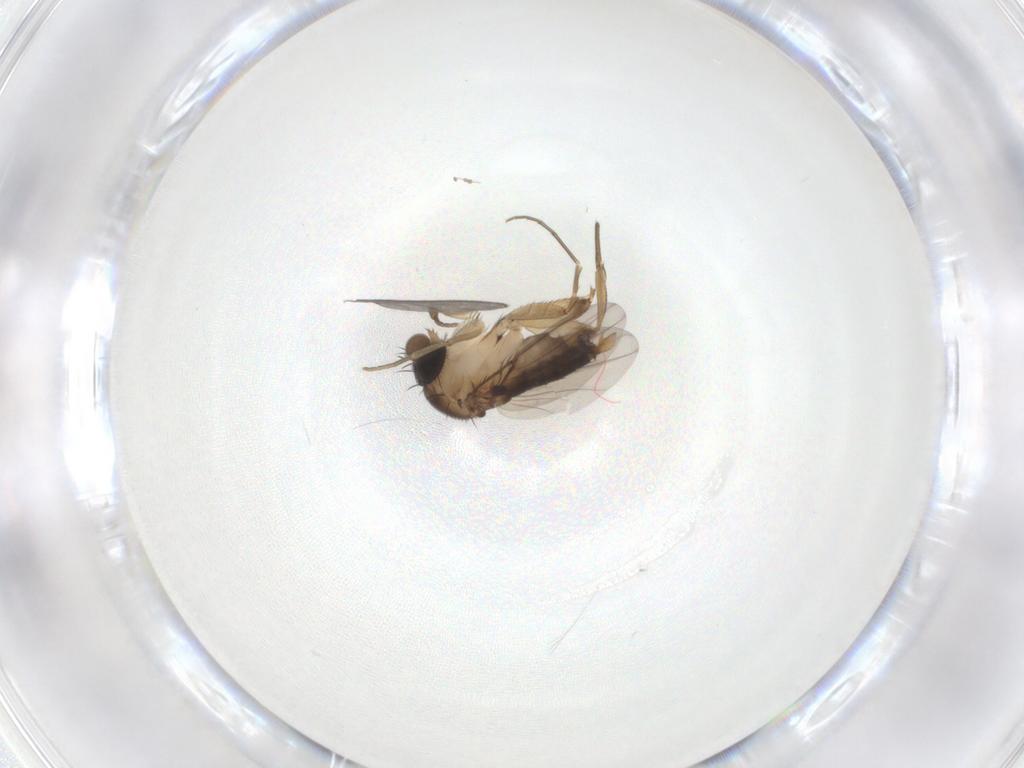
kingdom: Animalia
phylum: Arthropoda
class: Insecta
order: Diptera
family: Phoridae
